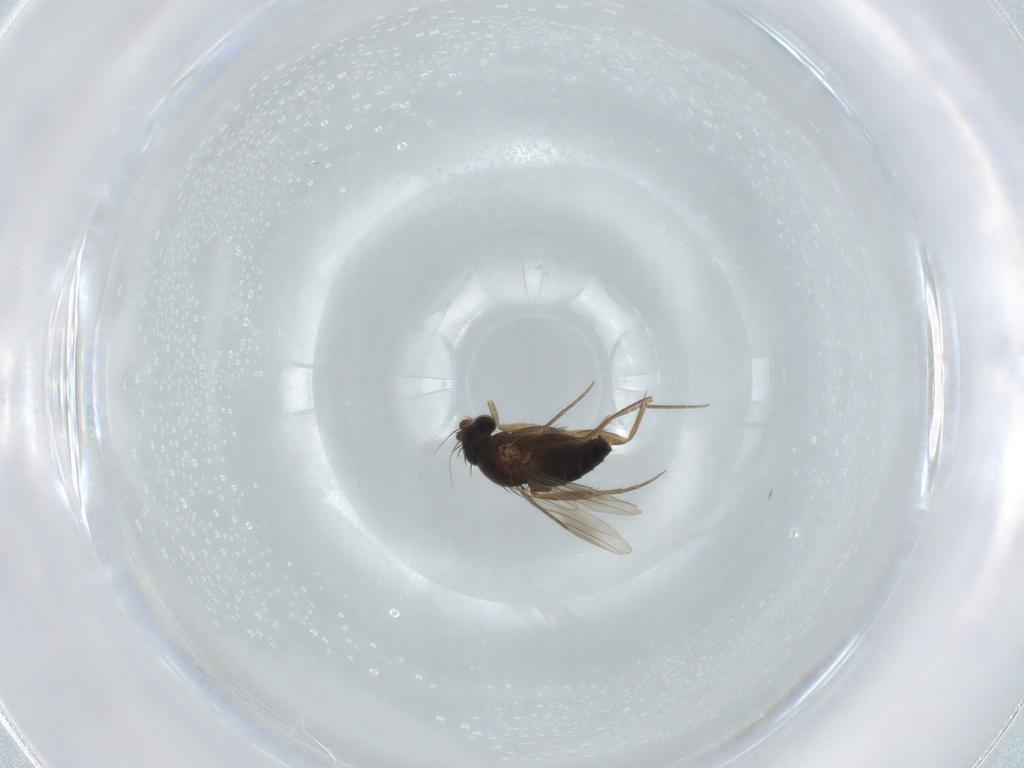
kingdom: Animalia
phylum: Arthropoda
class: Insecta
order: Diptera
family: Phoridae
